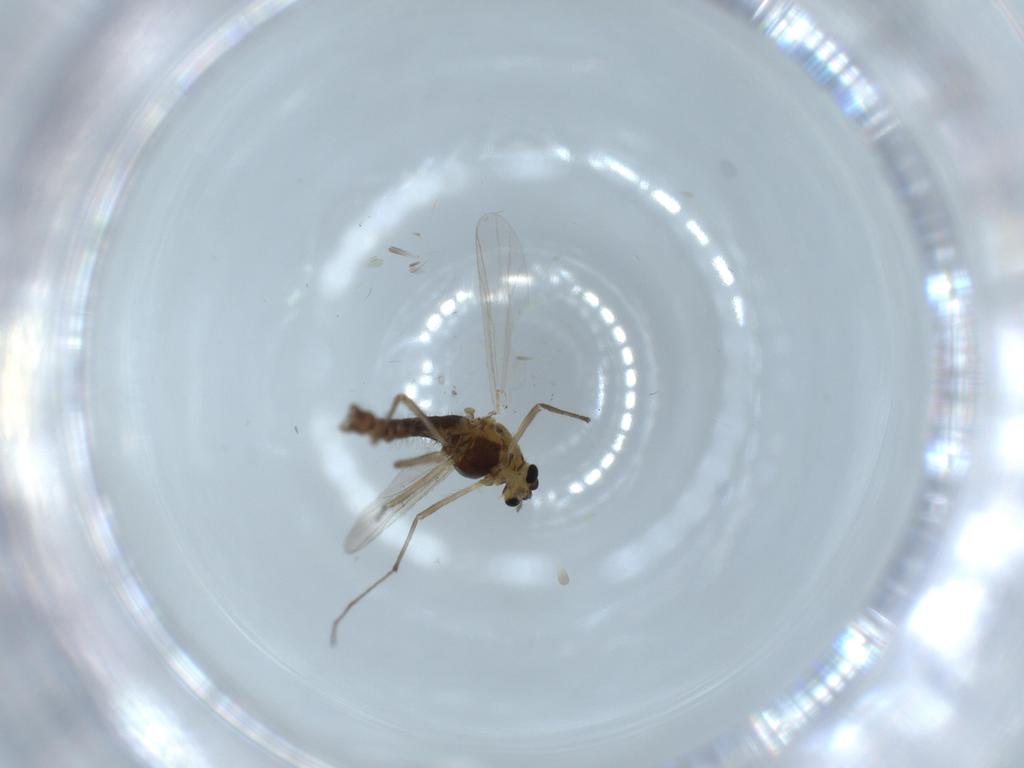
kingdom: Animalia
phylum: Arthropoda
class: Insecta
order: Diptera
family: Chironomidae
